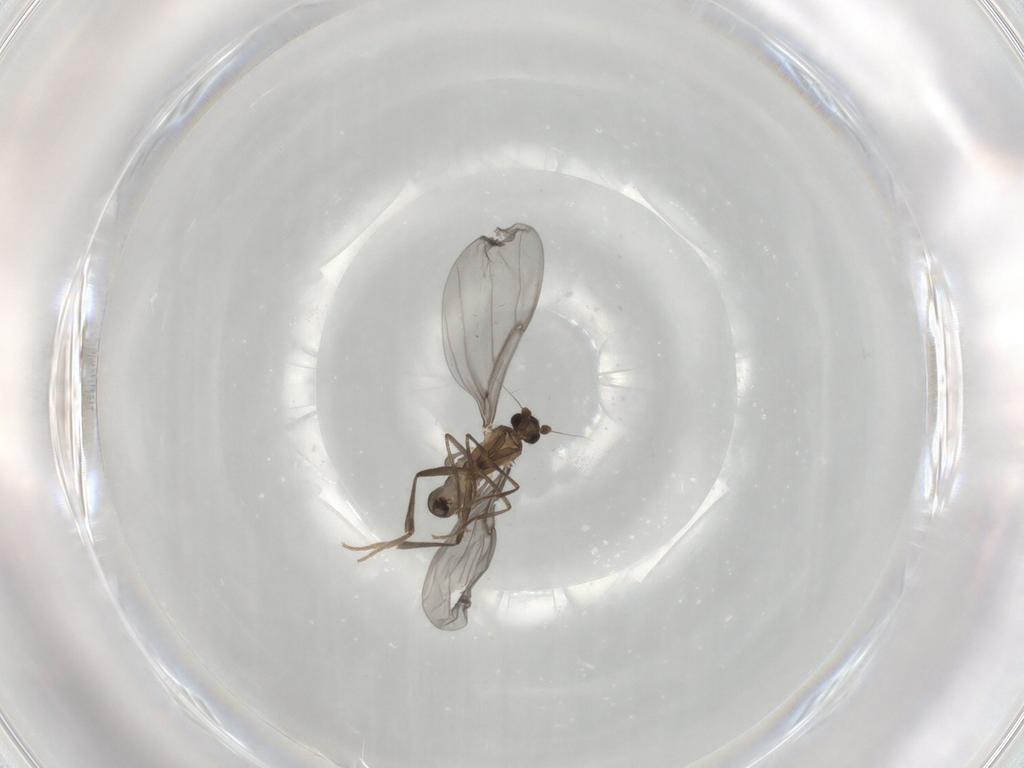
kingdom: Animalia
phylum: Arthropoda
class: Insecta
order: Diptera
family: Phoridae
